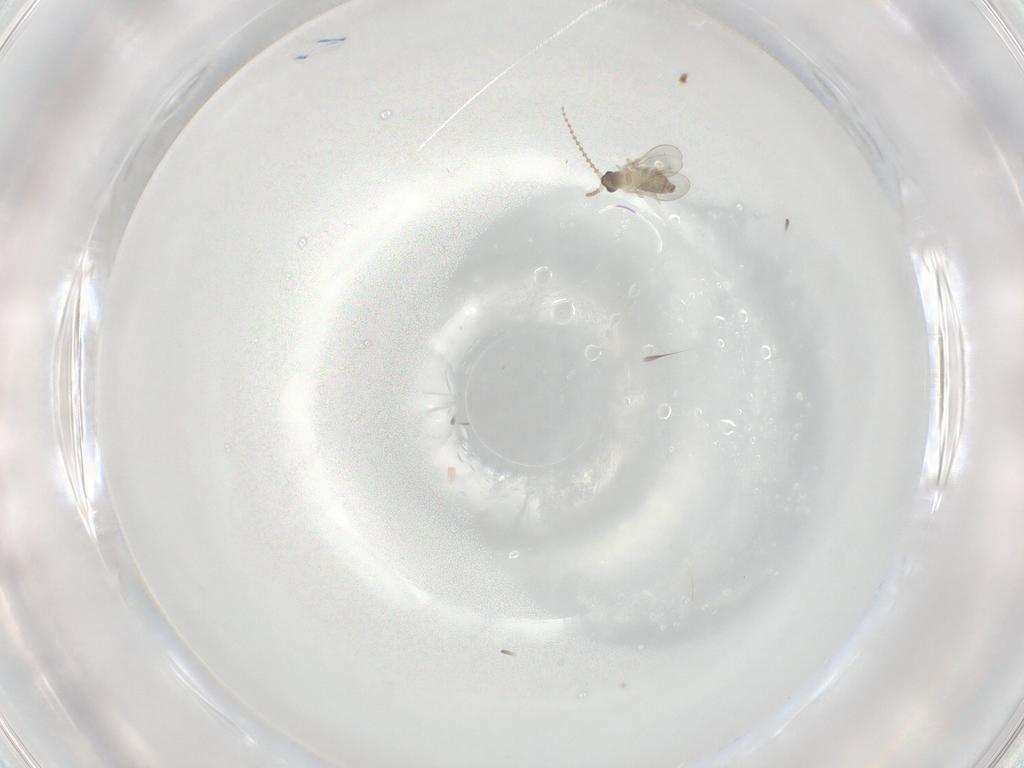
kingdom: Animalia
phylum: Arthropoda
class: Insecta
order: Diptera
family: Cecidomyiidae
